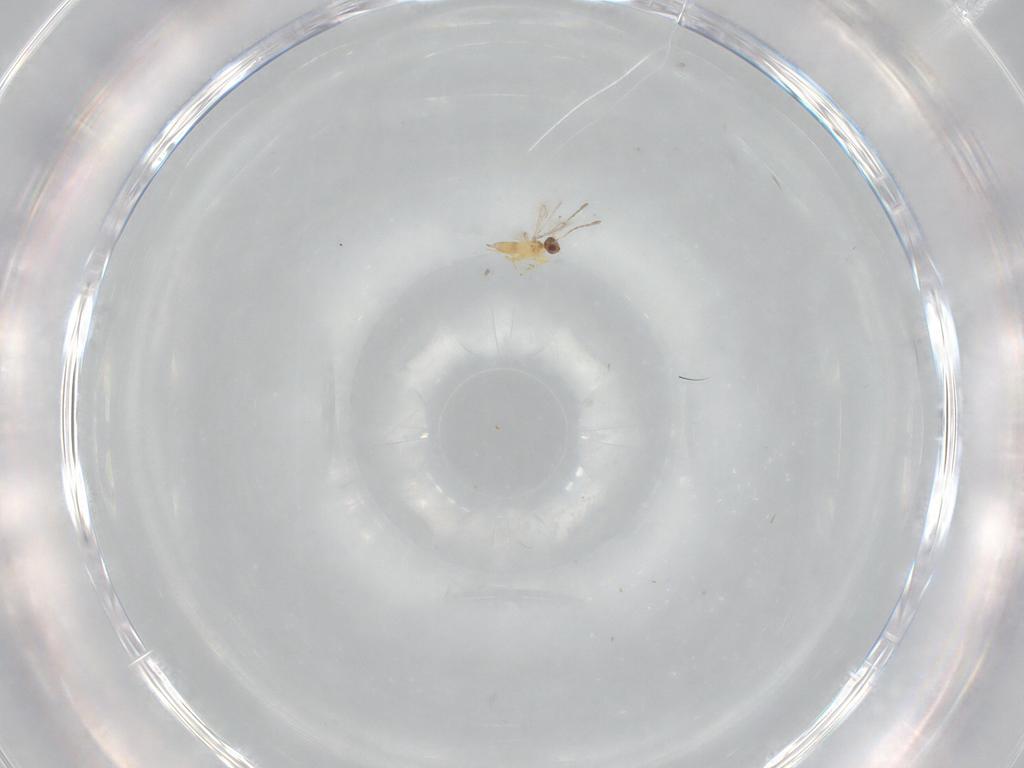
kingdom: Animalia
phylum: Arthropoda
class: Insecta
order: Hymenoptera
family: Mymaridae
